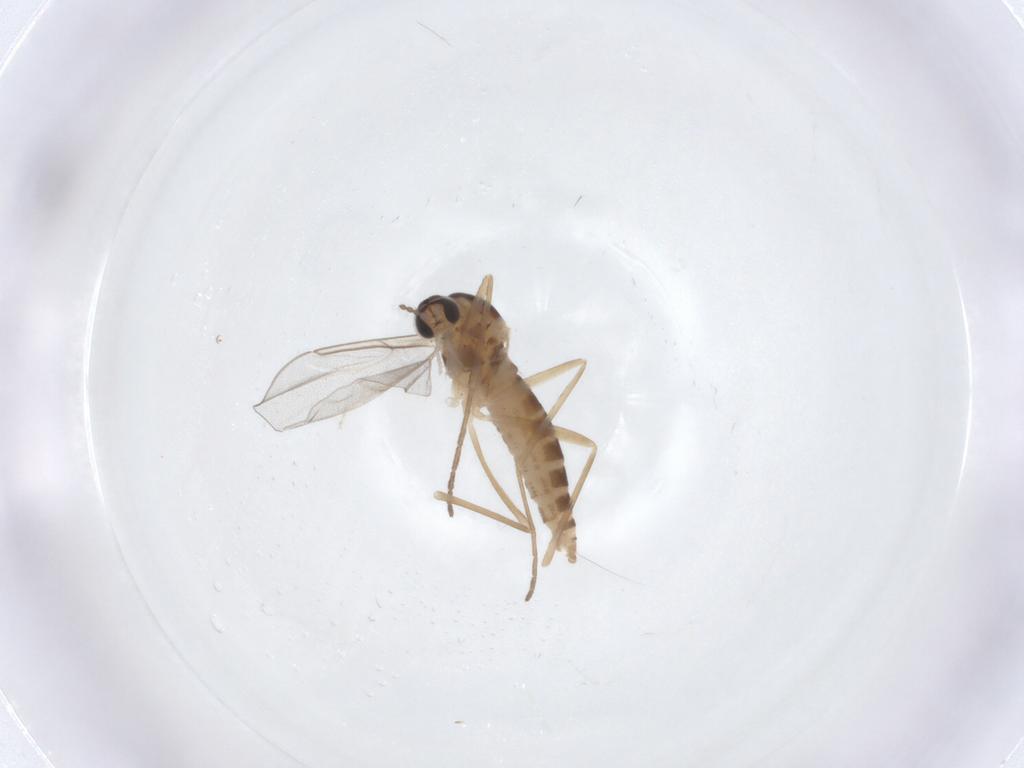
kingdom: Animalia
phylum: Arthropoda
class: Insecta
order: Diptera
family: Cecidomyiidae
